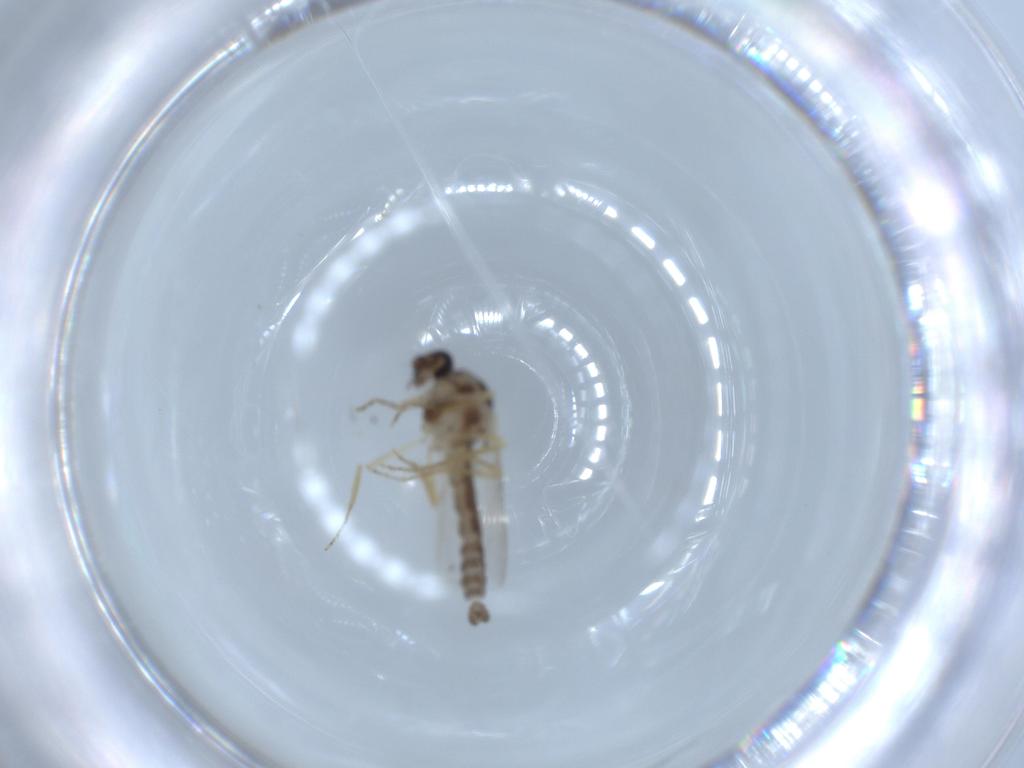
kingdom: Animalia
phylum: Arthropoda
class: Insecta
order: Diptera
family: Ceratopogonidae
